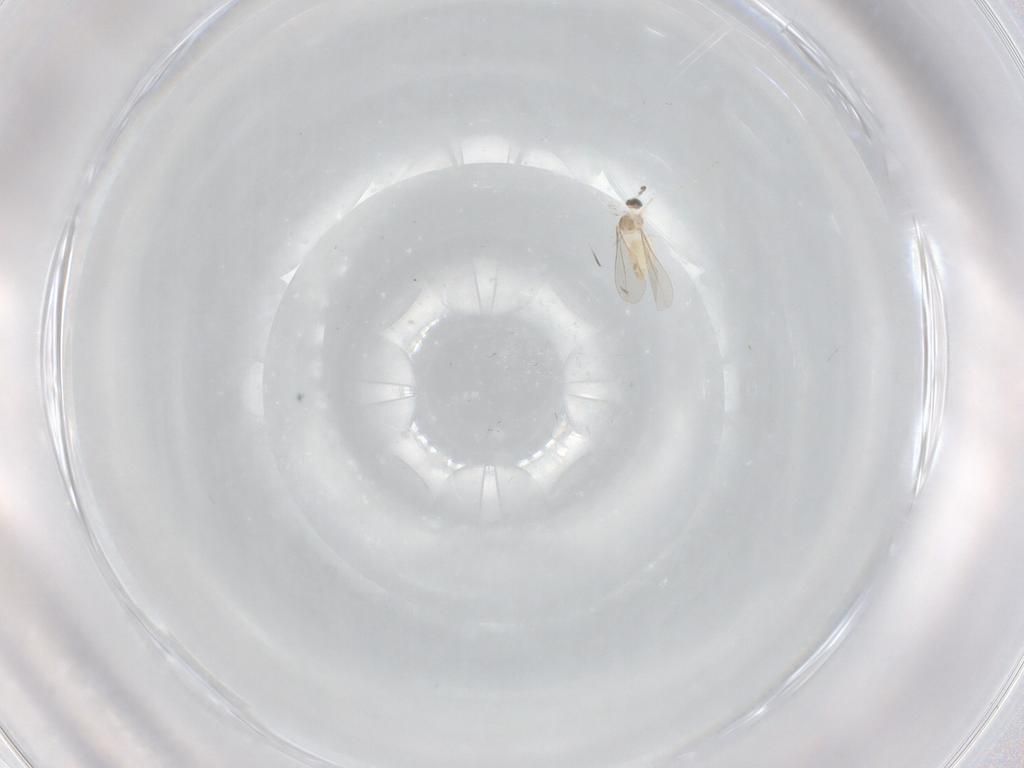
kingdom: Animalia
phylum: Arthropoda
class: Insecta
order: Diptera
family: Cecidomyiidae
